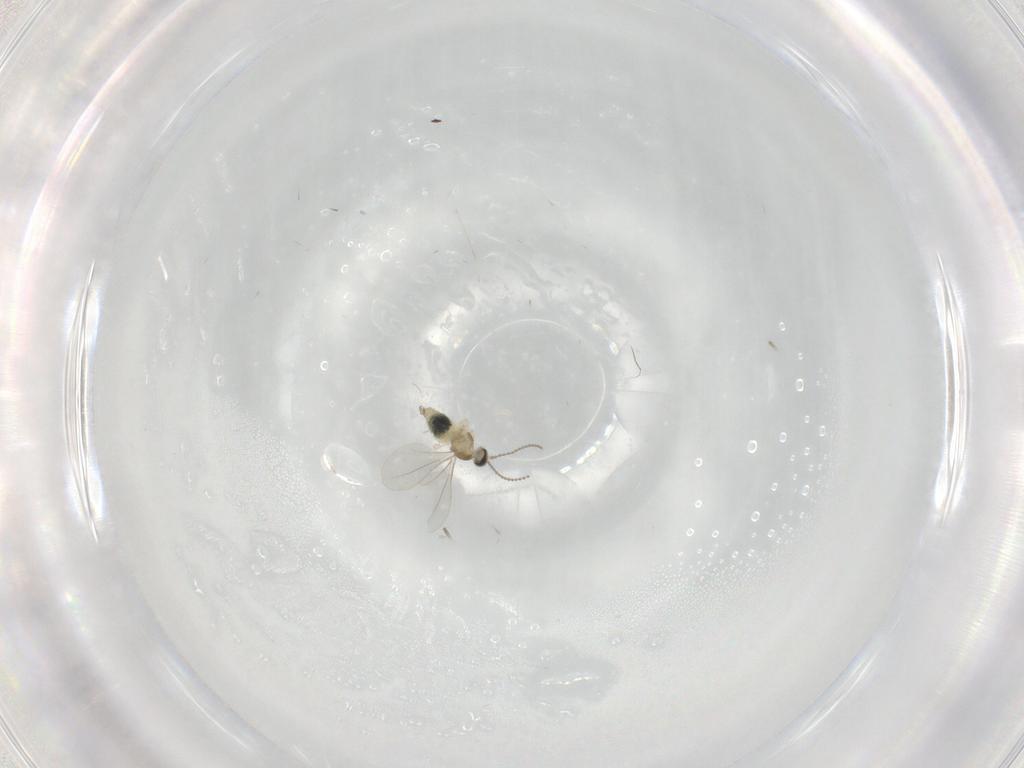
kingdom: Animalia
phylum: Arthropoda
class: Insecta
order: Diptera
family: Cecidomyiidae
